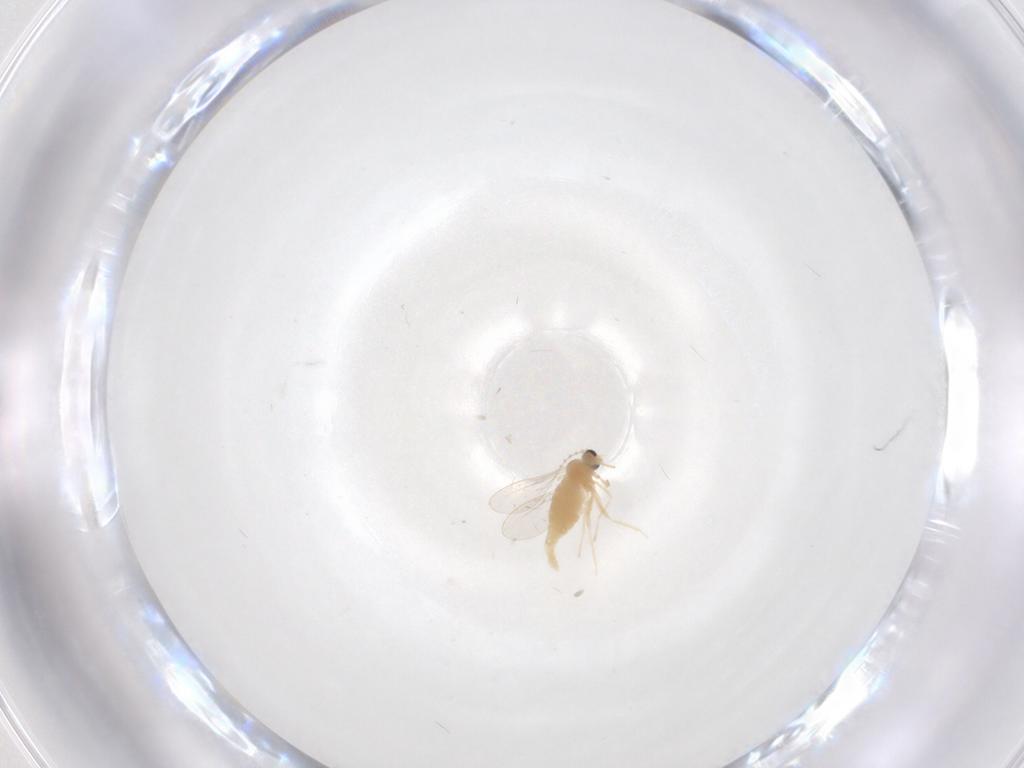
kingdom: Animalia
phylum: Arthropoda
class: Insecta
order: Diptera
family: Cecidomyiidae
